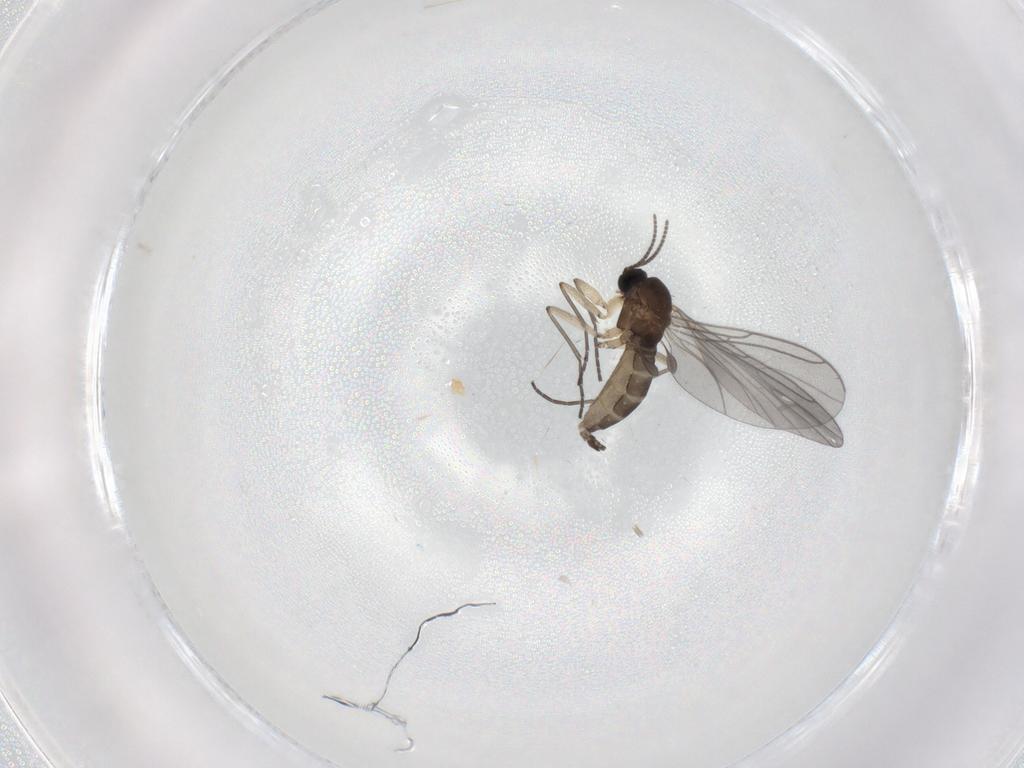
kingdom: Animalia
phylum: Arthropoda
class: Insecta
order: Diptera
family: Sciaridae
